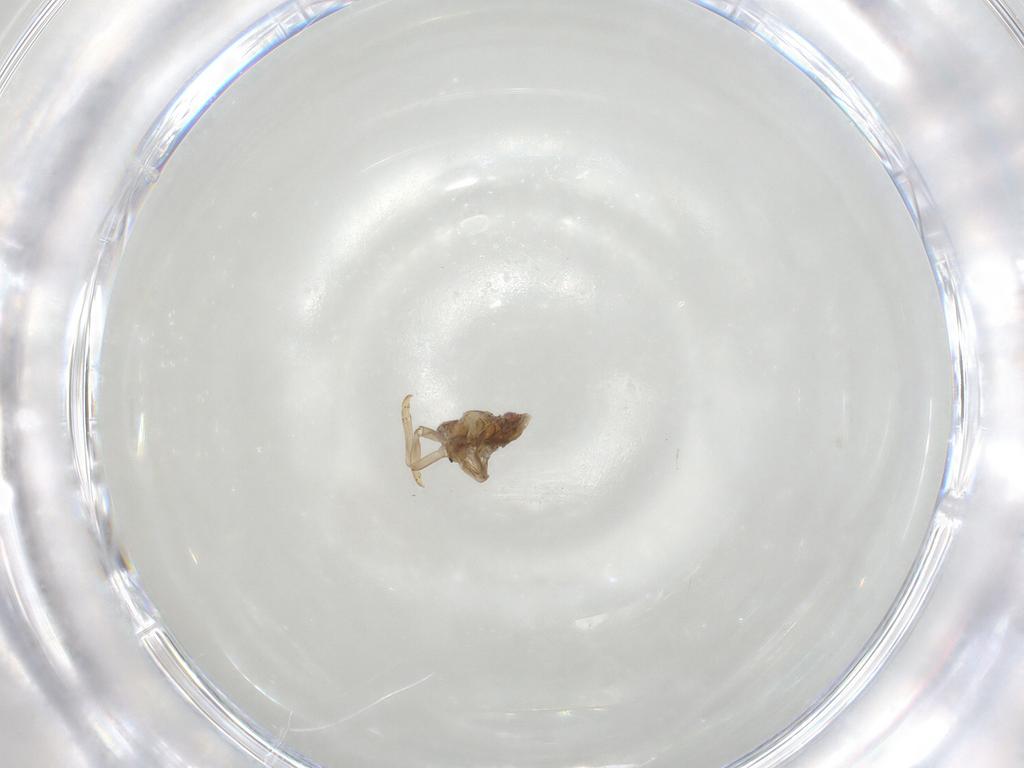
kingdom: Animalia
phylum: Arthropoda
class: Insecta
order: Hemiptera
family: Tropiduchidae
